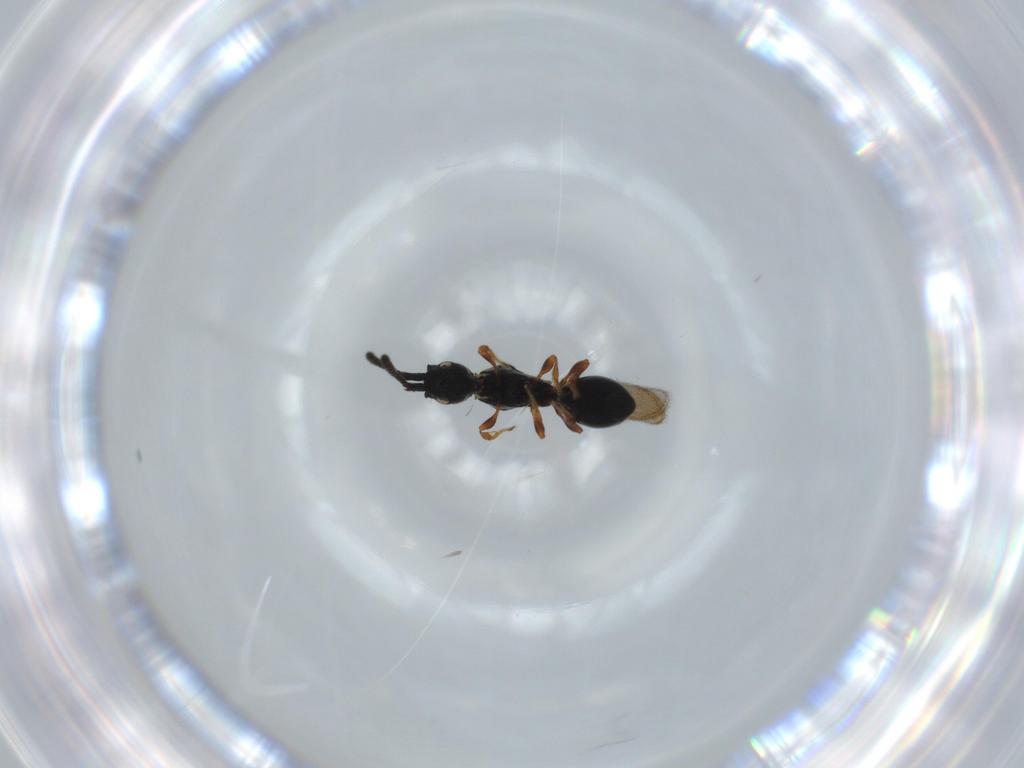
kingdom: Animalia
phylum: Arthropoda
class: Insecta
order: Hymenoptera
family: Diapriidae
